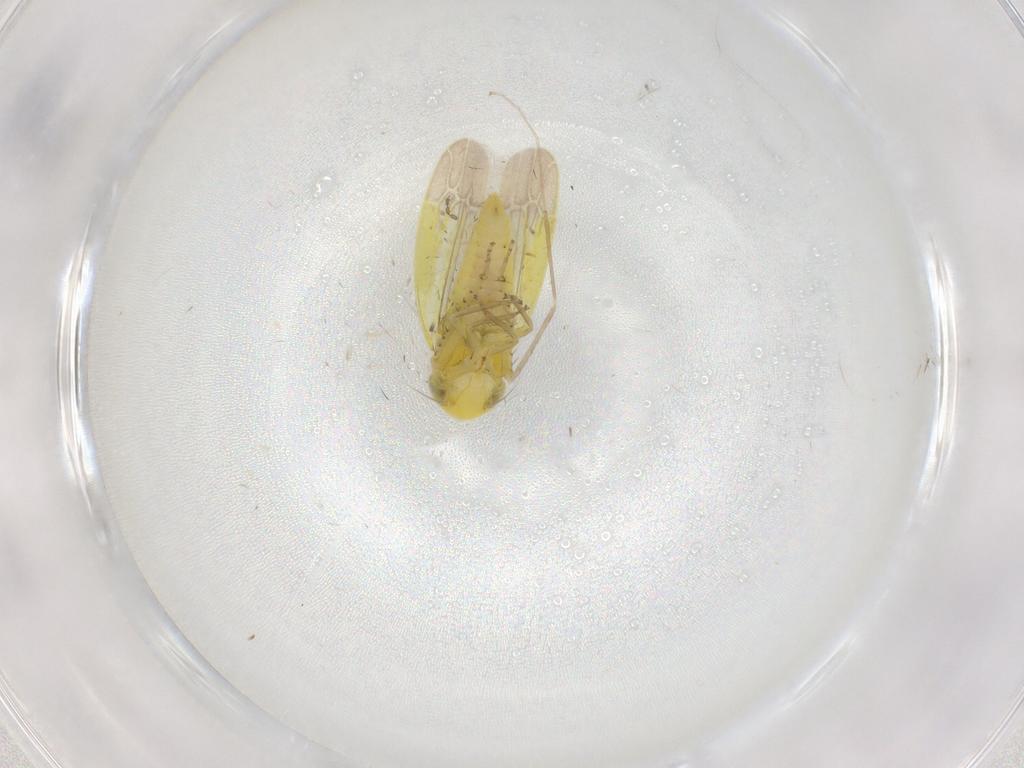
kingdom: Animalia
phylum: Arthropoda
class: Insecta
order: Hemiptera
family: Cicadellidae
